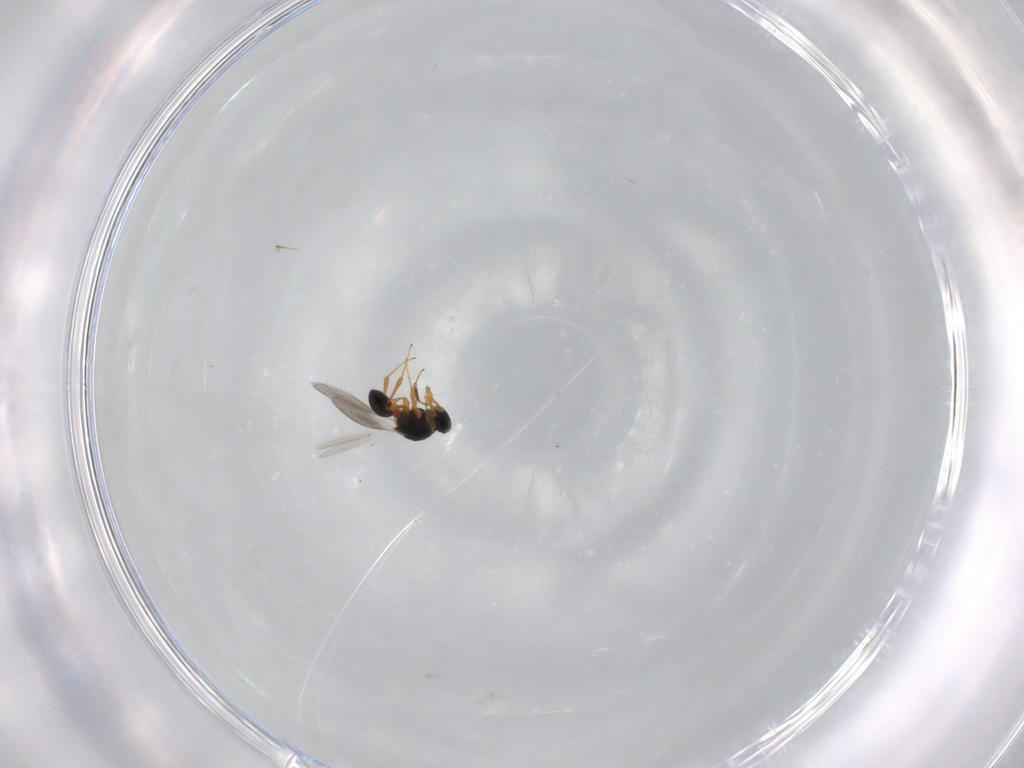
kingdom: Animalia
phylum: Arthropoda
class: Insecta
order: Hymenoptera
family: Platygastridae
